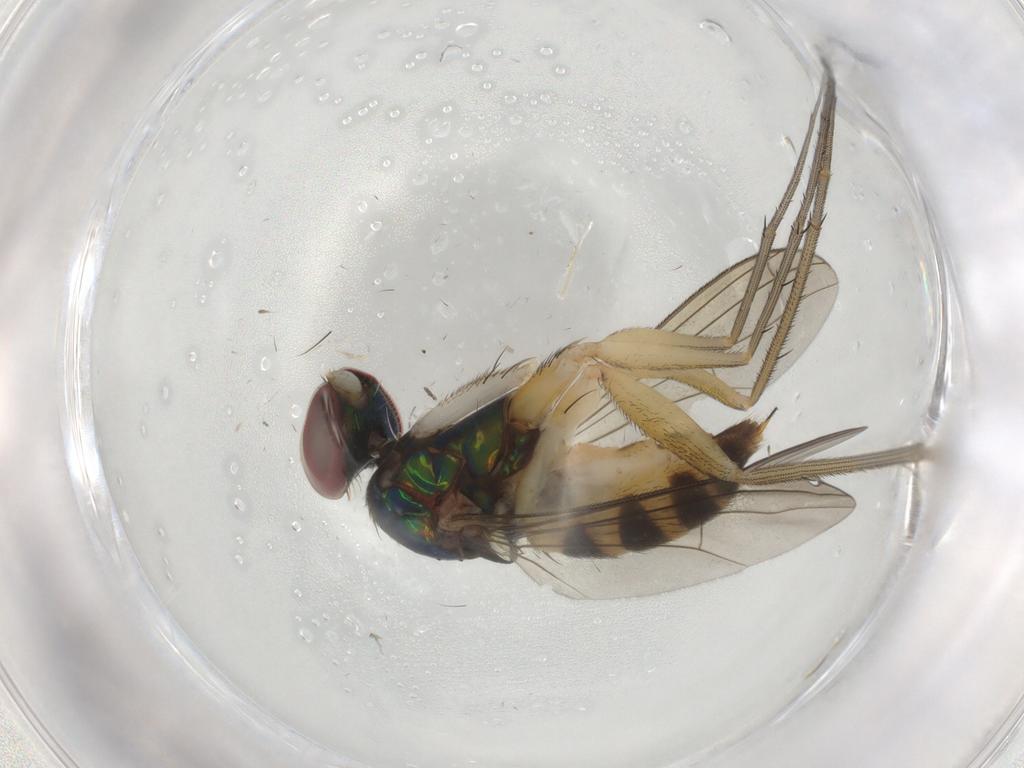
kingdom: Animalia
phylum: Arthropoda
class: Insecta
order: Diptera
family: Dolichopodidae
